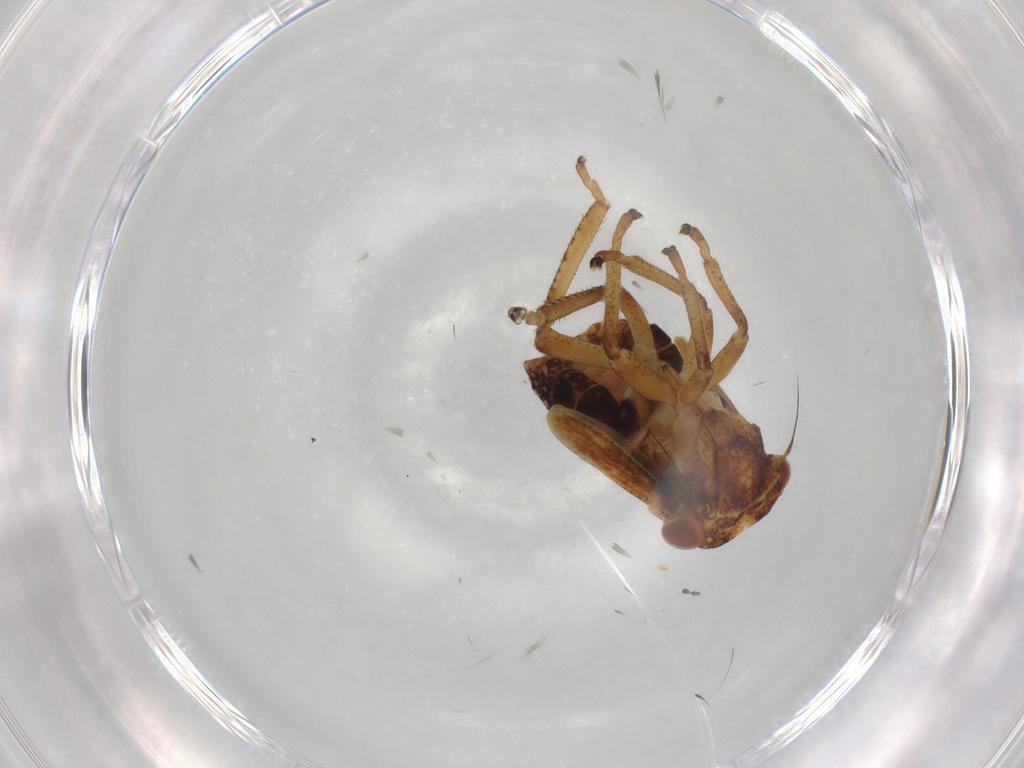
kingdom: Animalia
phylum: Arthropoda
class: Insecta
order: Hemiptera
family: Cicadellidae
